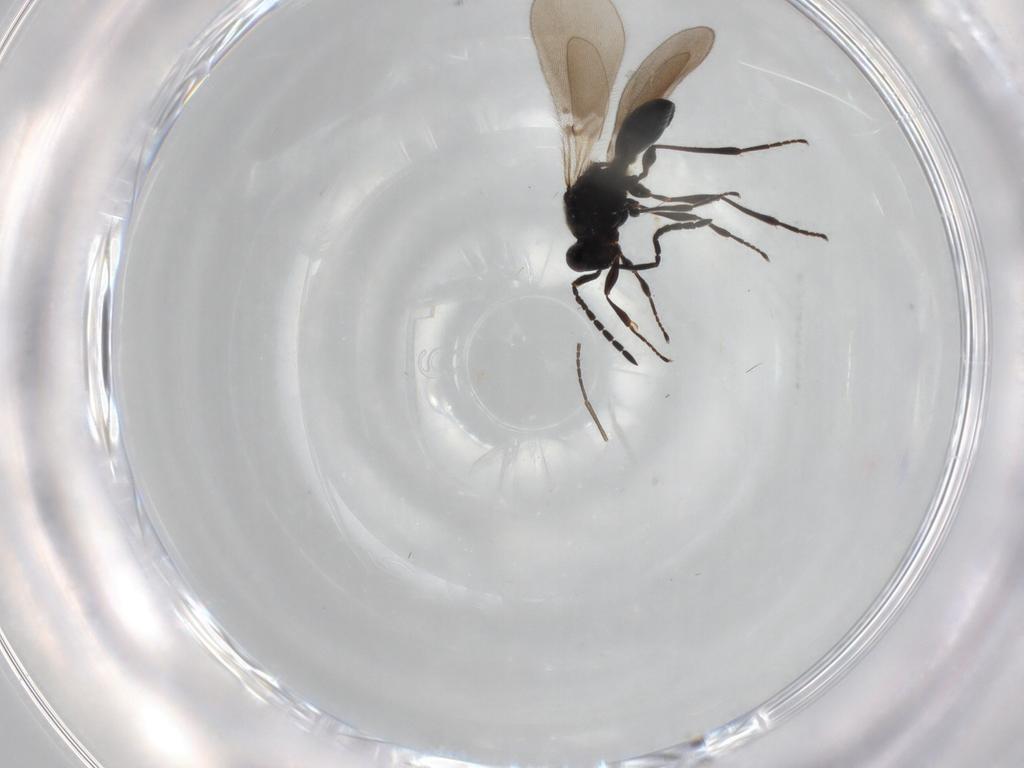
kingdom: Animalia
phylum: Arthropoda
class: Insecta
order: Hymenoptera
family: Platygastridae
